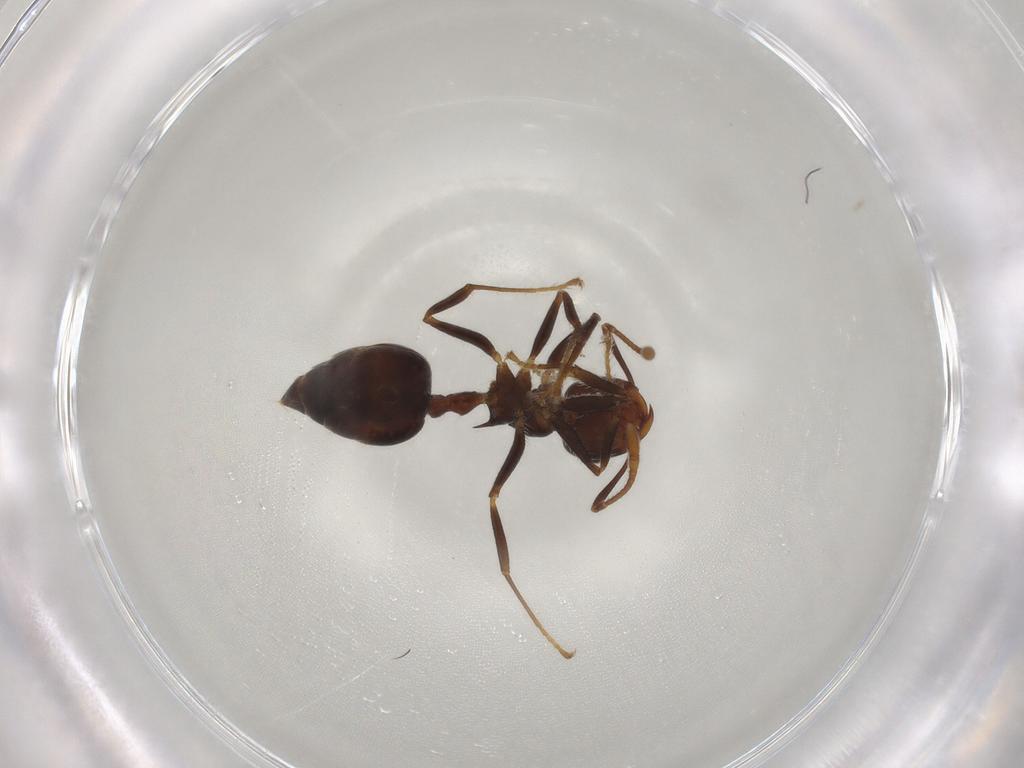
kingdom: Animalia
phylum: Arthropoda
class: Insecta
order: Hymenoptera
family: Formicidae
